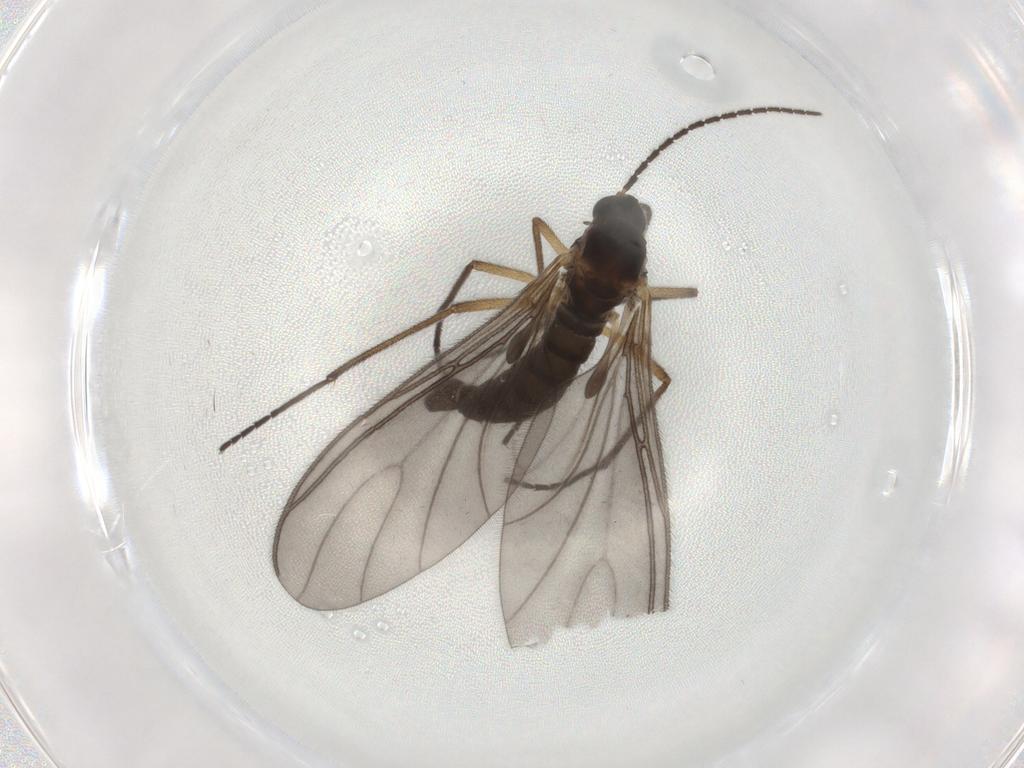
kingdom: Animalia
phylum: Arthropoda
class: Insecta
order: Diptera
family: Sciaridae
